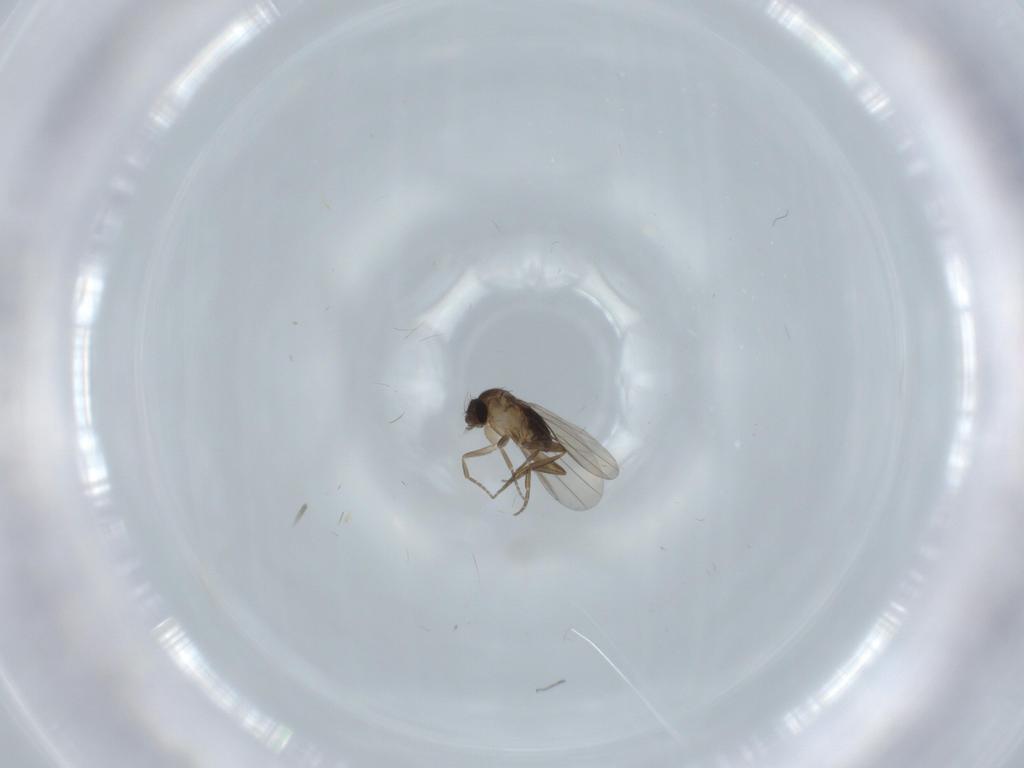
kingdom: Animalia
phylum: Arthropoda
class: Insecta
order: Diptera
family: Phoridae
